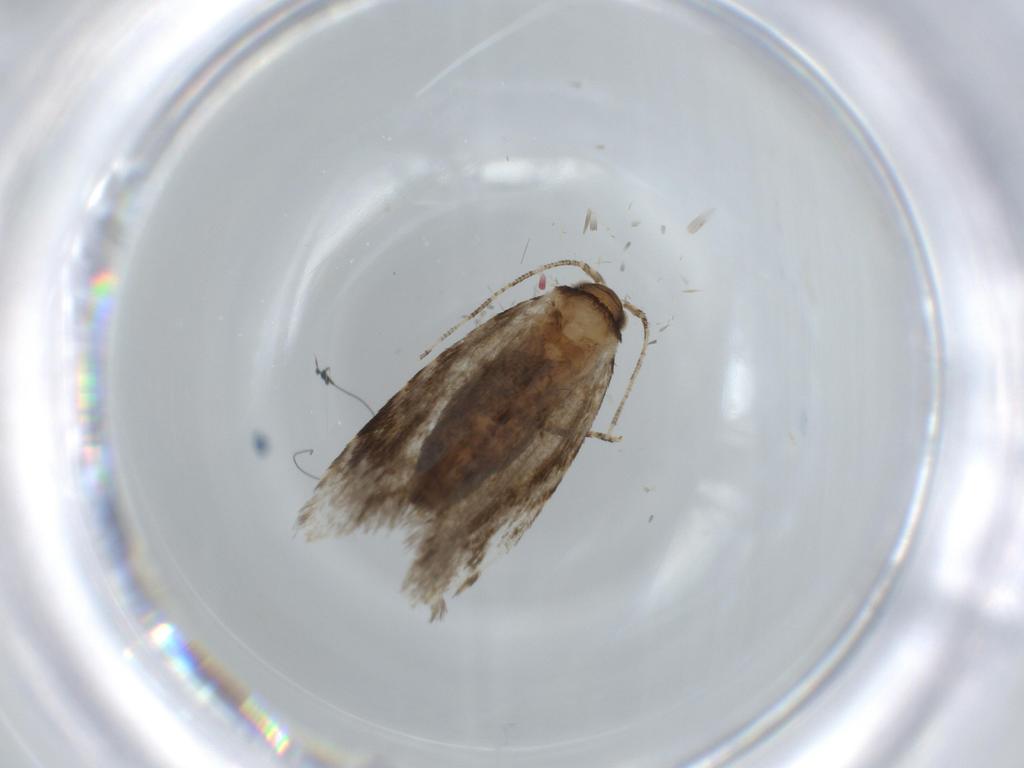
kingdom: Animalia
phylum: Arthropoda
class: Insecta
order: Lepidoptera
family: Tineidae
